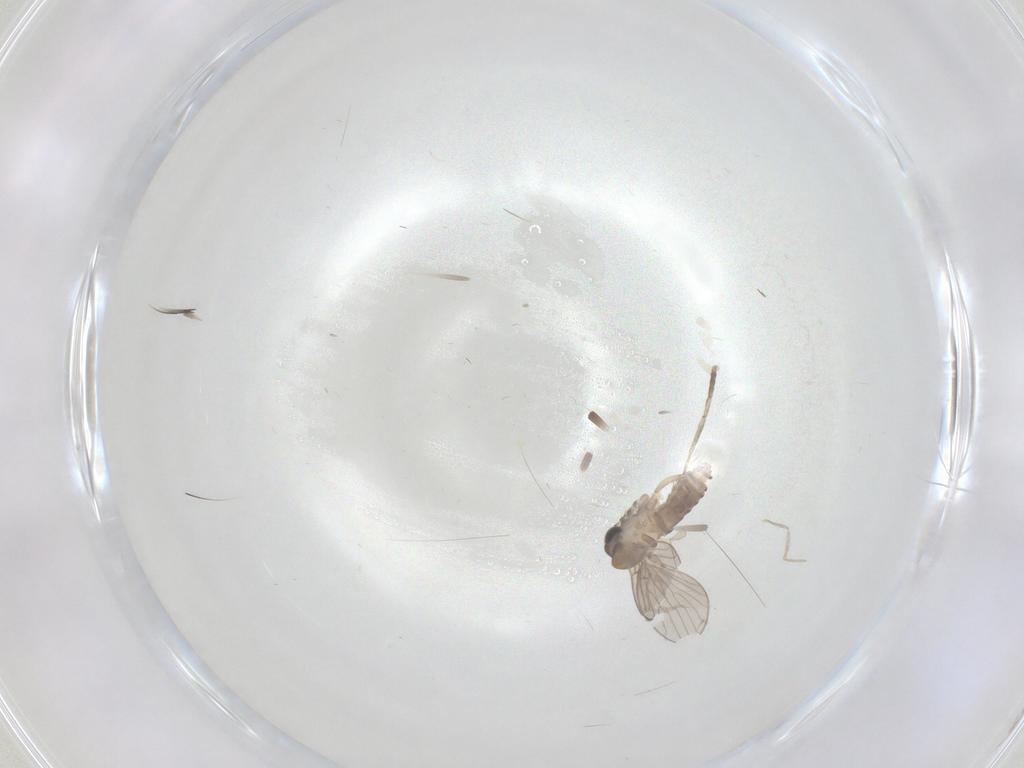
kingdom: Animalia
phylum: Arthropoda
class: Insecta
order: Diptera
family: Cecidomyiidae
